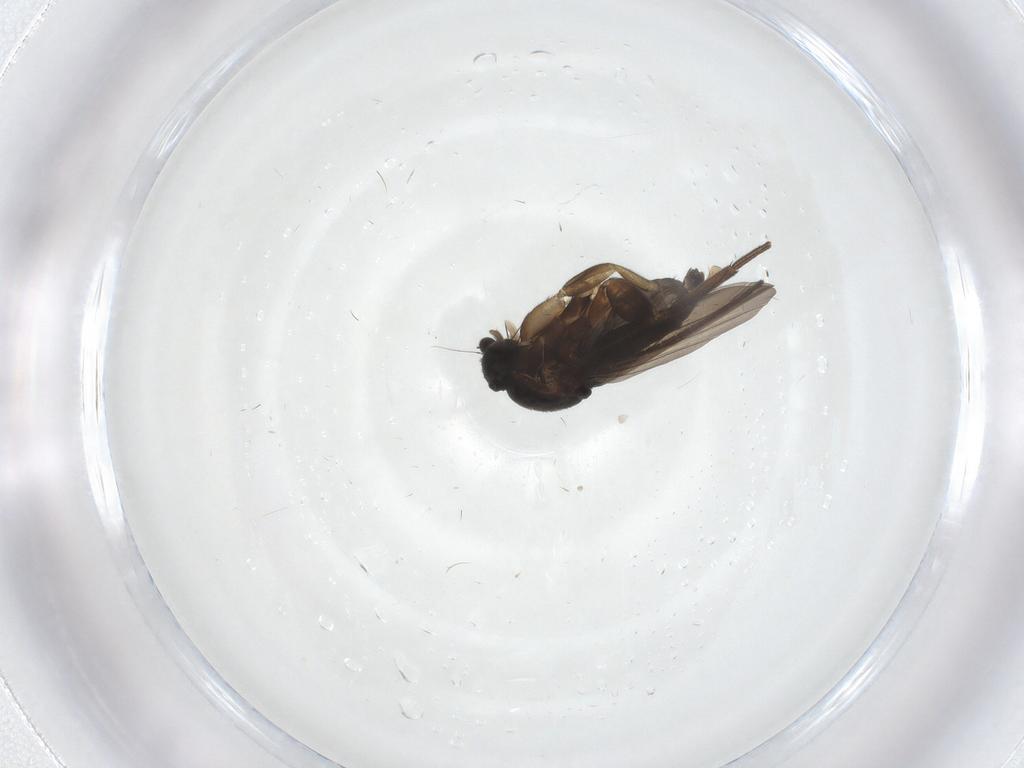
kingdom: Animalia
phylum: Arthropoda
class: Insecta
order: Diptera
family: Phoridae
